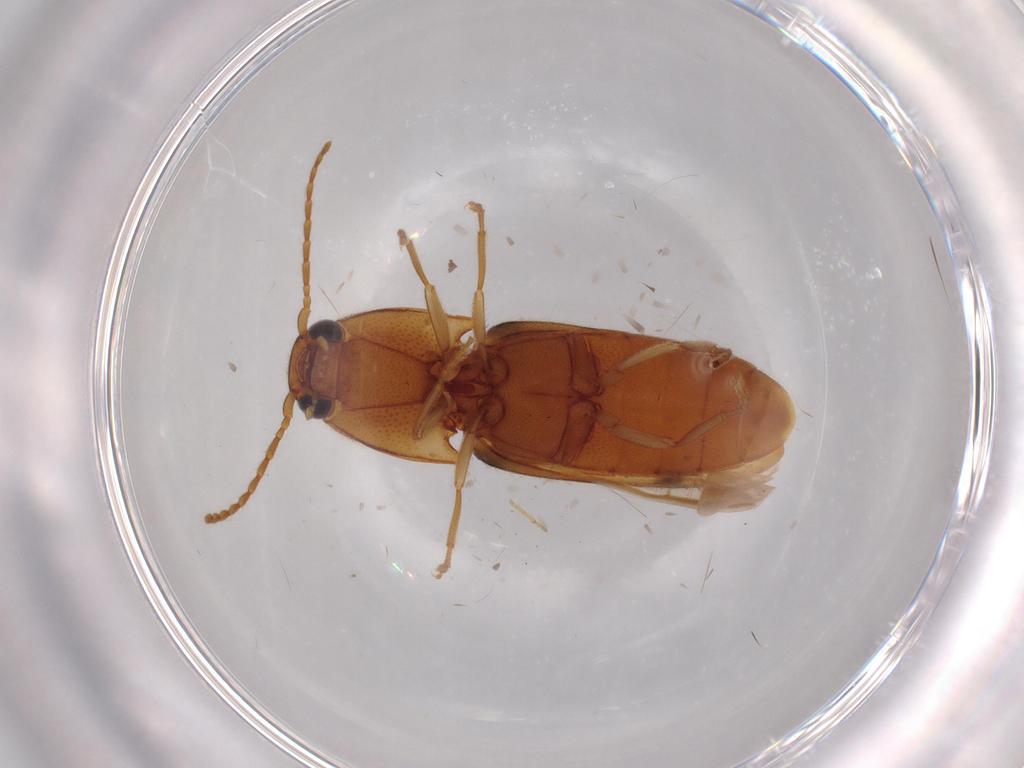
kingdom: Animalia
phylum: Arthropoda
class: Insecta
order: Coleoptera
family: Elateridae
